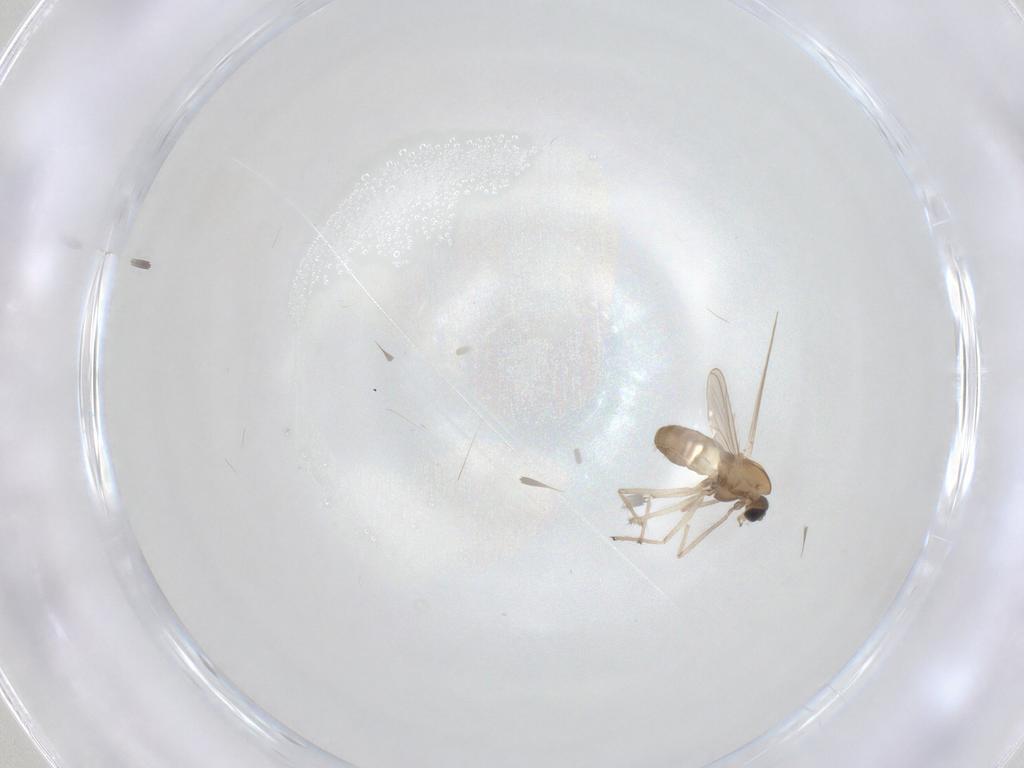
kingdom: Animalia
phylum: Arthropoda
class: Insecta
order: Diptera
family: Chironomidae
